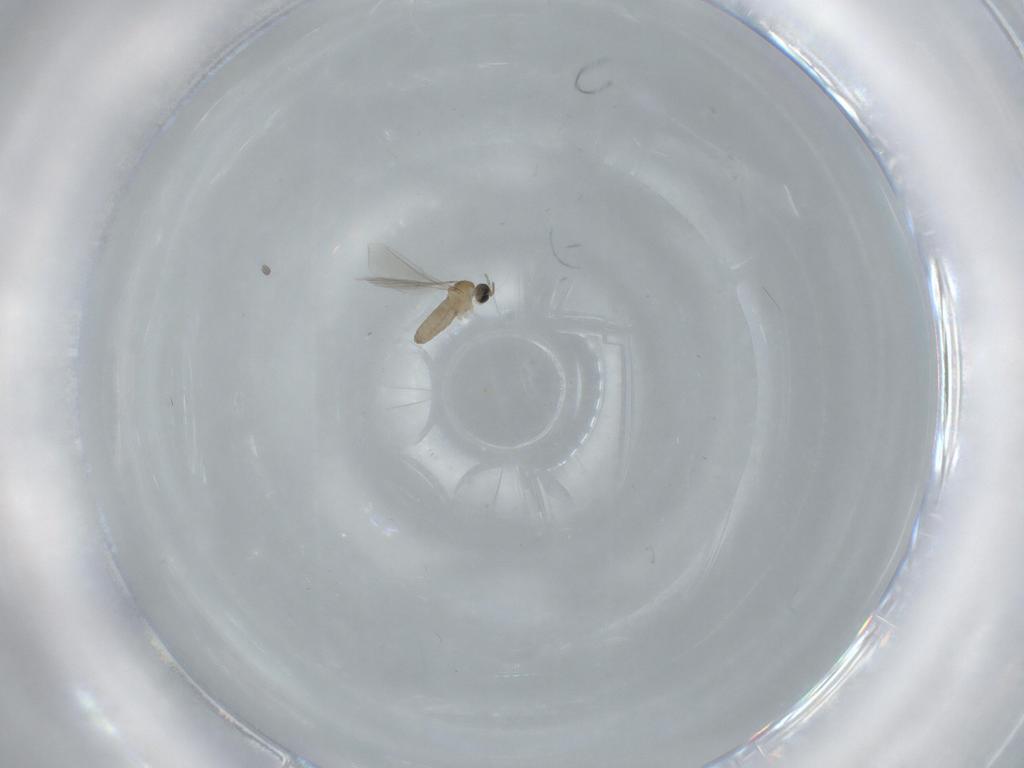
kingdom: Animalia
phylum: Arthropoda
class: Insecta
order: Diptera
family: Cecidomyiidae
